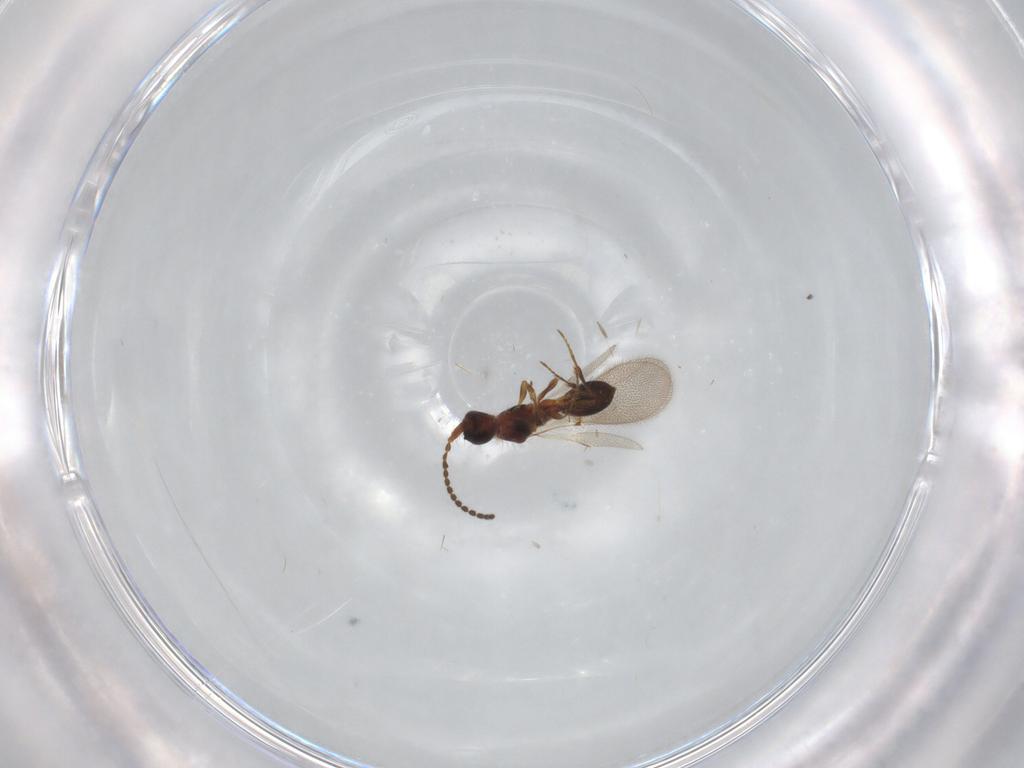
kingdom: Animalia
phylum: Arthropoda
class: Insecta
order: Hymenoptera
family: Diapriidae
